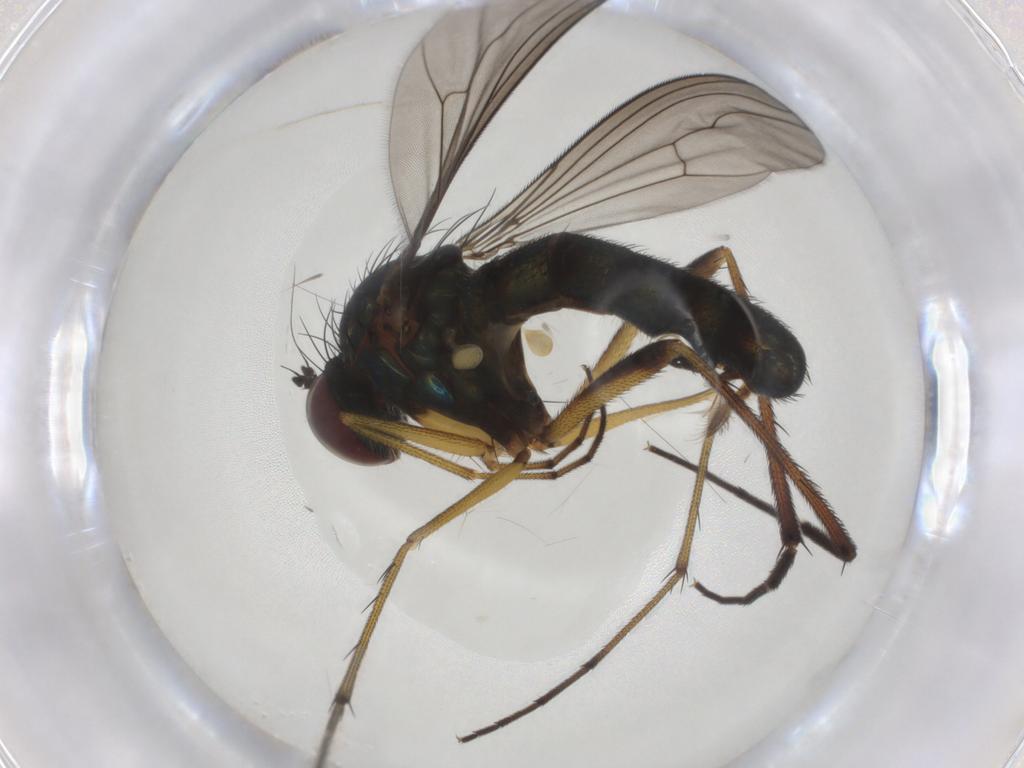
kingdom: Animalia
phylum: Arthropoda
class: Insecta
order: Diptera
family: Dolichopodidae
